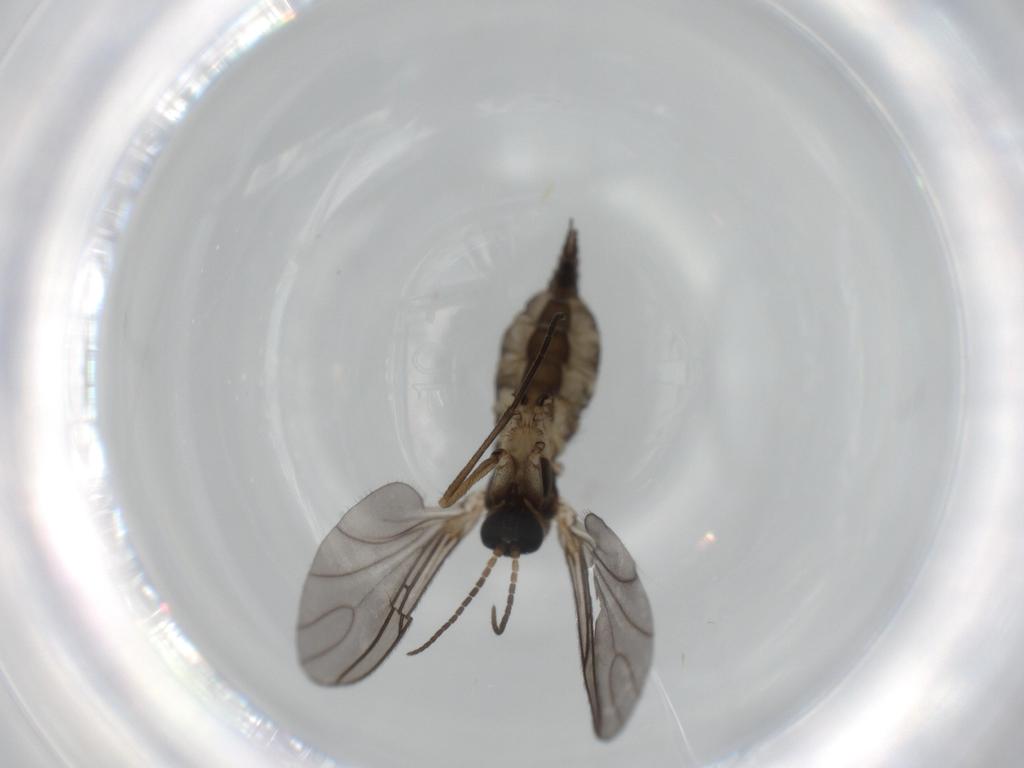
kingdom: Animalia
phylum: Arthropoda
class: Insecta
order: Diptera
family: Sciaridae
